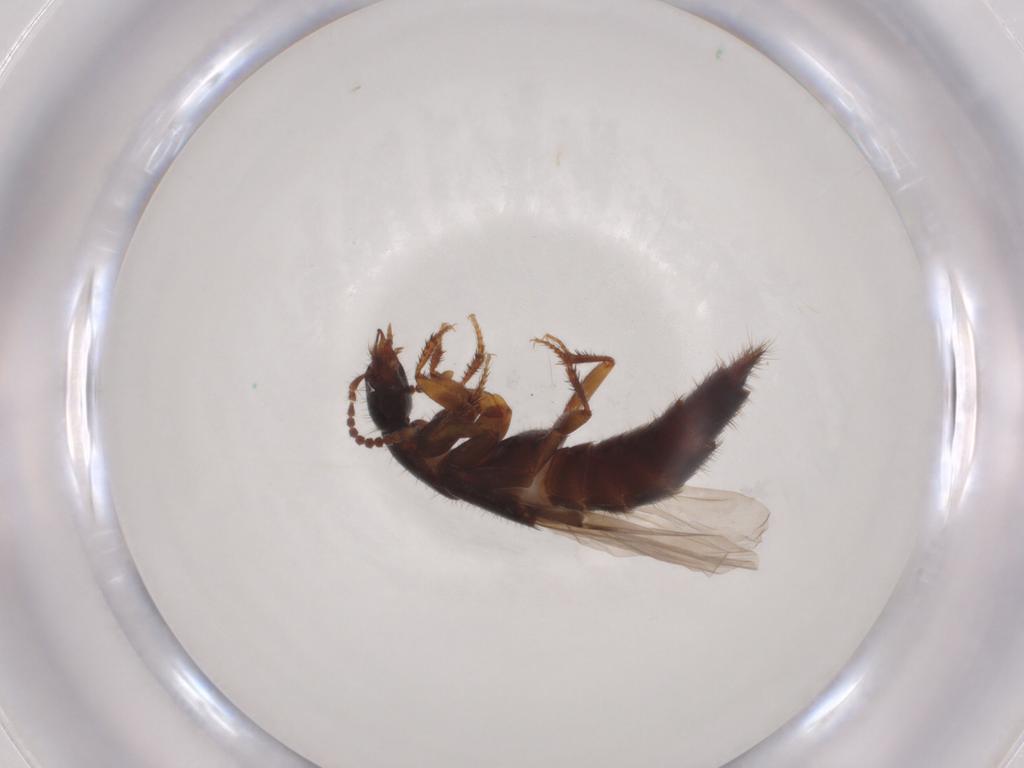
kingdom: Animalia
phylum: Arthropoda
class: Insecta
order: Coleoptera
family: Staphylinidae
